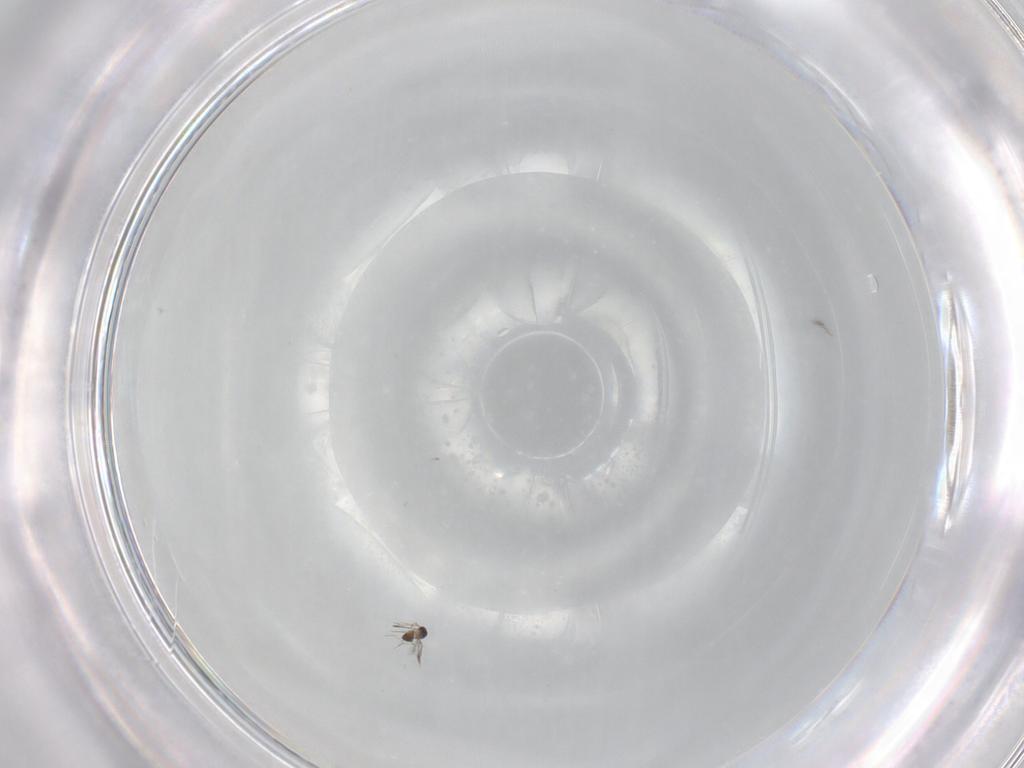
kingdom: Animalia
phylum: Arthropoda
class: Insecta
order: Hymenoptera
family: Mymaridae
